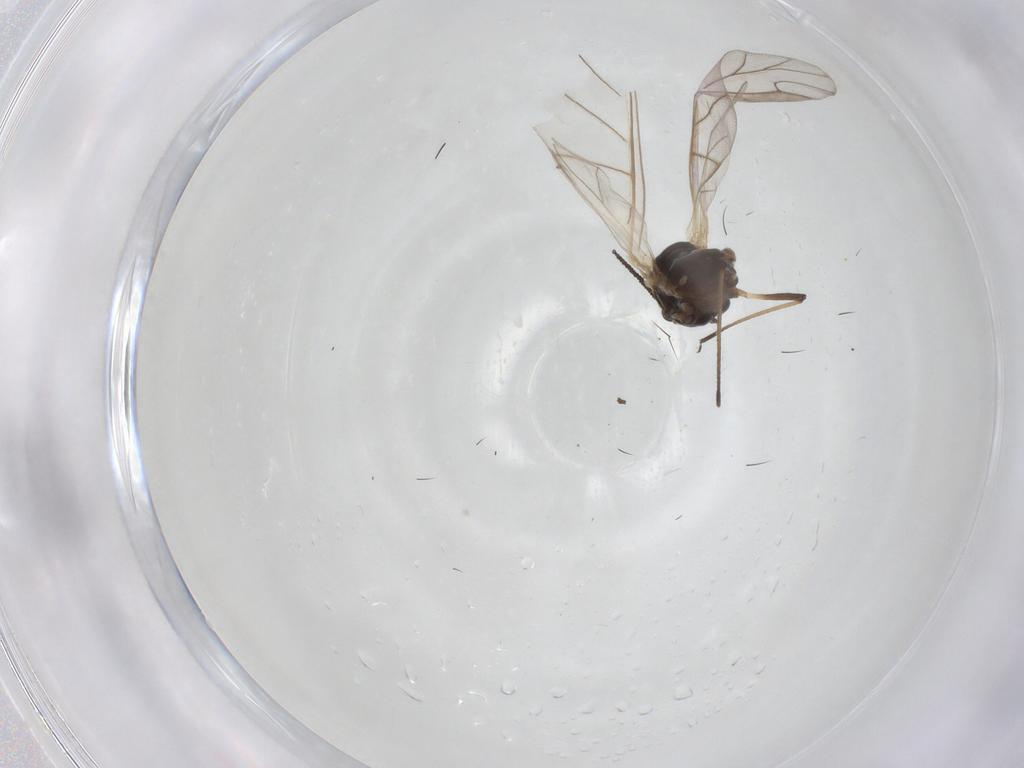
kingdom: Animalia
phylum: Arthropoda
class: Insecta
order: Hemiptera
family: Aphididae
